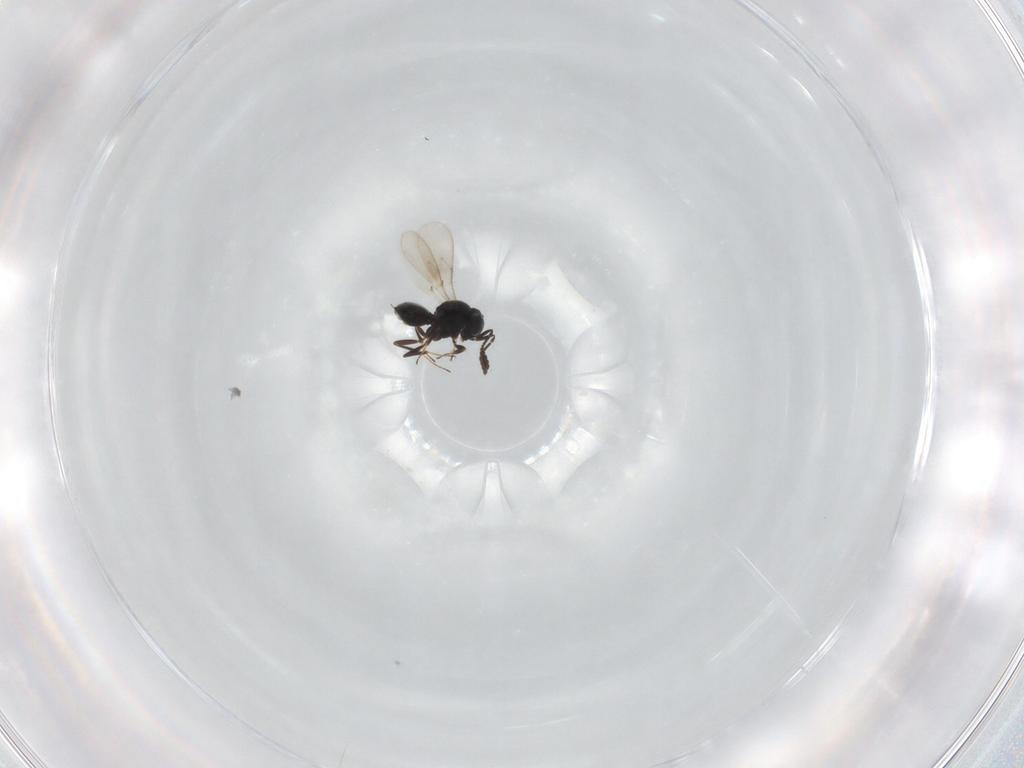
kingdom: Animalia
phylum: Arthropoda
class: Insecta
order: Hymenoptera
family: Scelionidae
